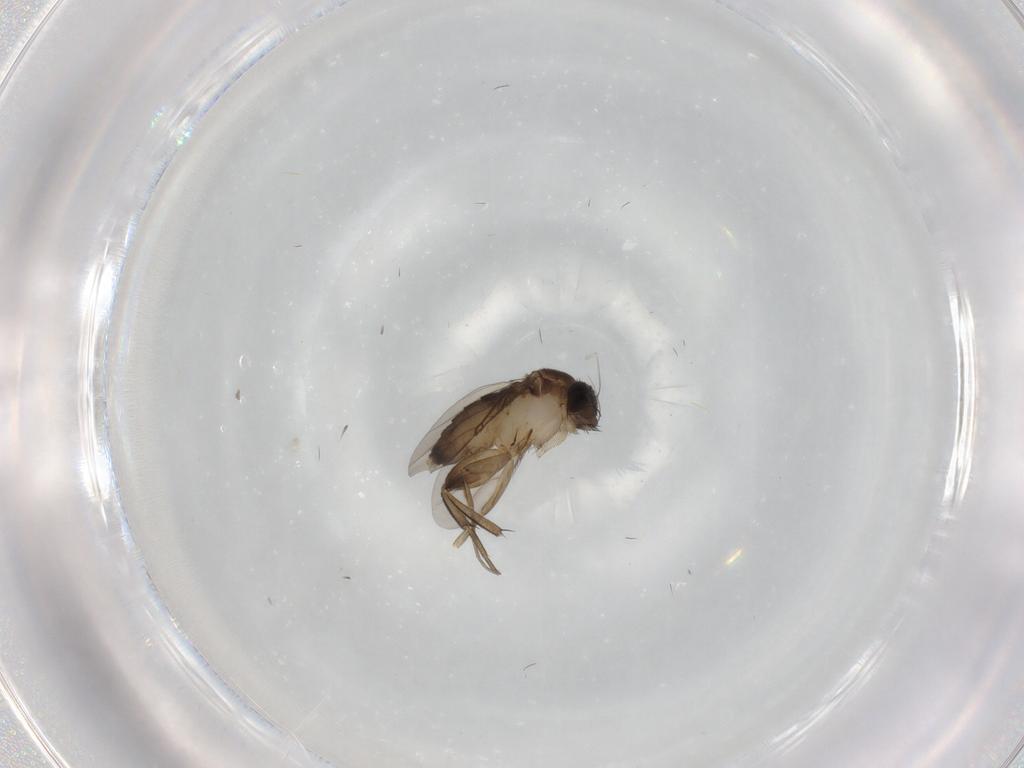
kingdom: Animalia
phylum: Arthropoda
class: Insecta
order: Diptera
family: Phoridae
